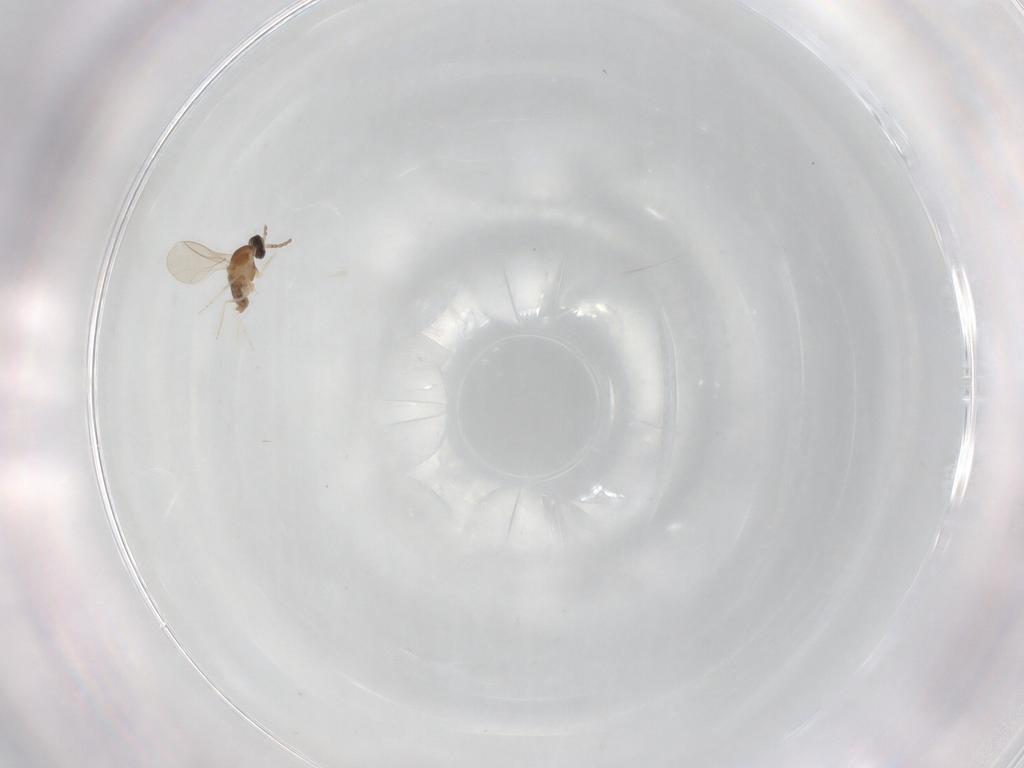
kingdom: Animalia
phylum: Arthropoda
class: Insecta
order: Diptera
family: Cecidomyiidae
